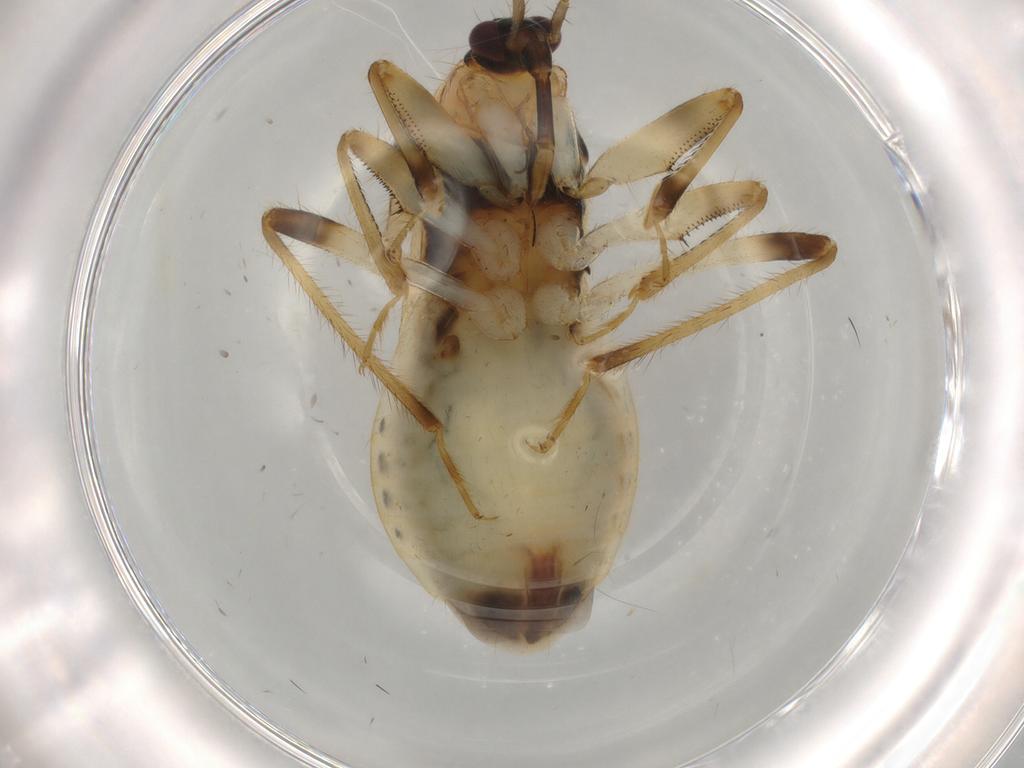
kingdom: Animalia
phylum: Arthropoda
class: Insecta
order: Hemiptera
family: Nabidae
